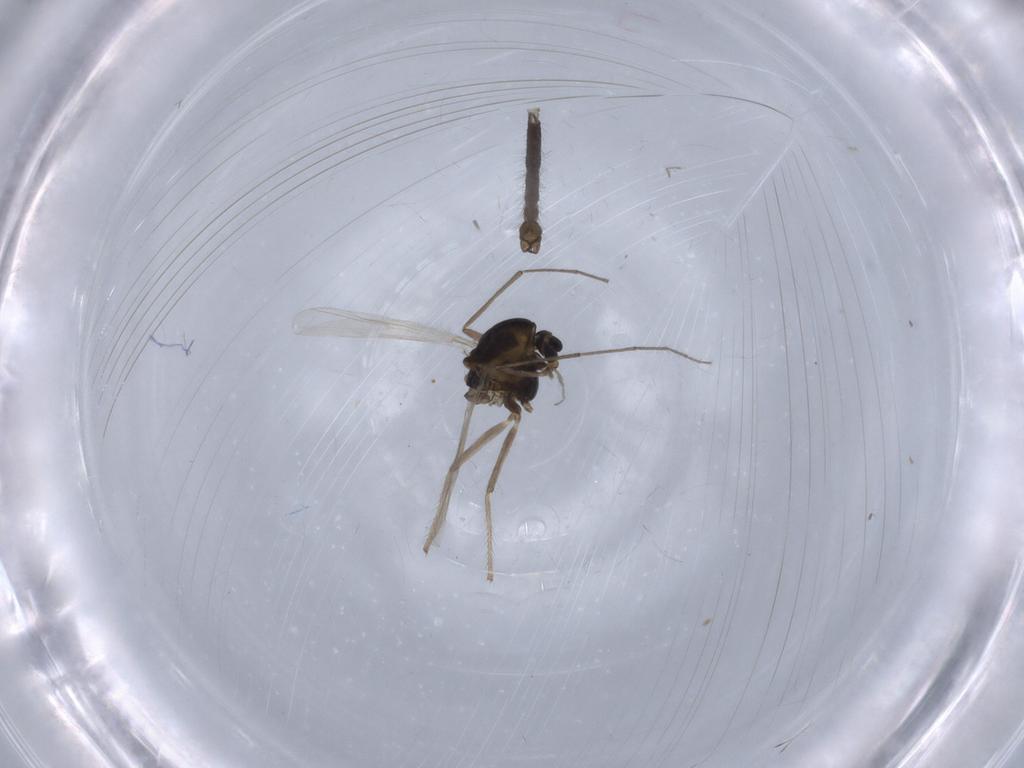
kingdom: Animalia
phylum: Arthropoda
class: Insecta
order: Diptera
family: Chironomidae
